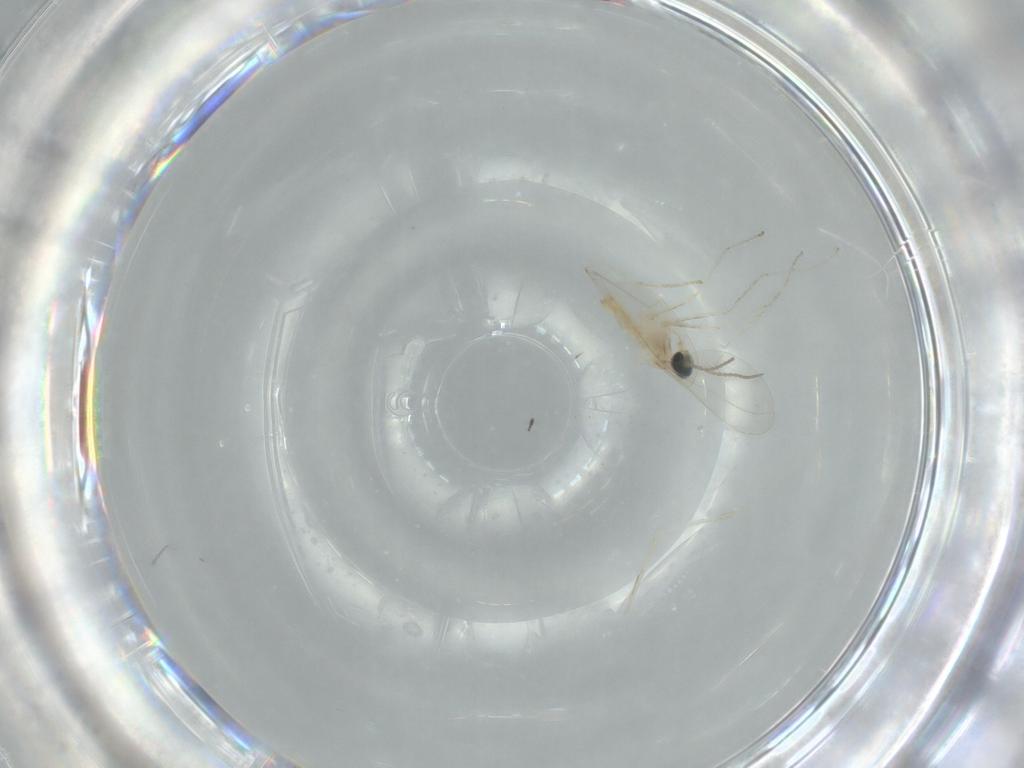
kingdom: Animalia
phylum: Arthropoda
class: Insecta
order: Diptera
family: Cecidomyiidae
